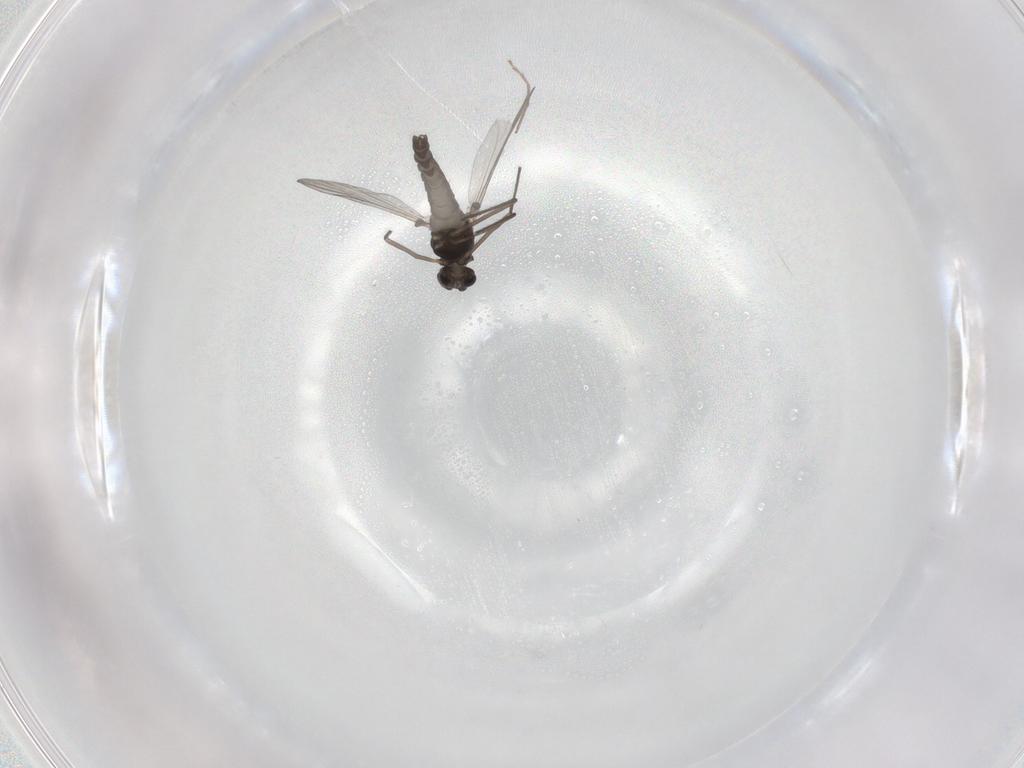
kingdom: Animalia
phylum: Arthropoda
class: Insecta
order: Diptera
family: Chironomidae
